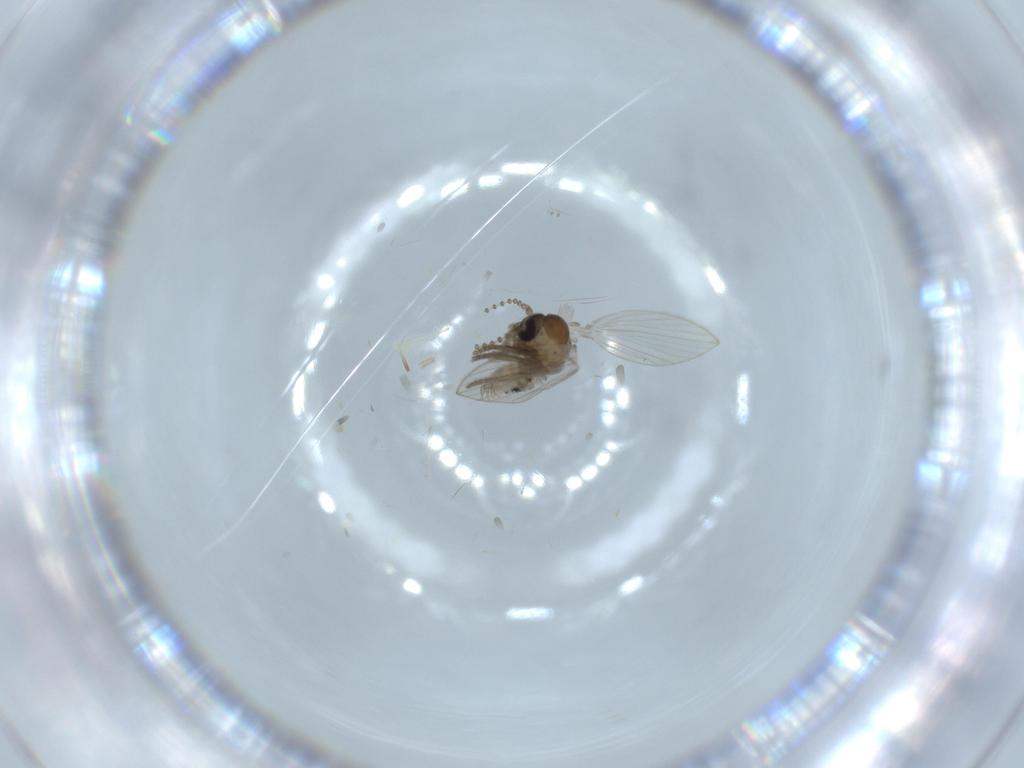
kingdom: Animalia
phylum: Arthropoda
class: Insecta
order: Diptera
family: Psychodidae
